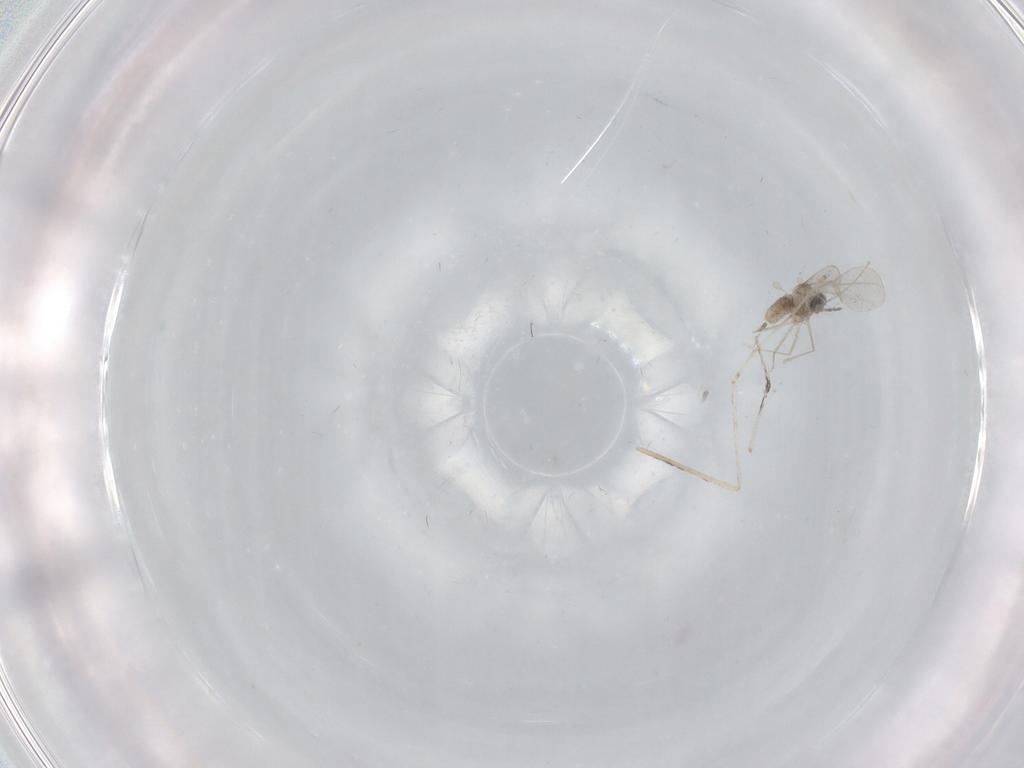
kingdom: Animalia
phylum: Arthropoda
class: Insecta
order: Diptera
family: Cecidomyiidae
